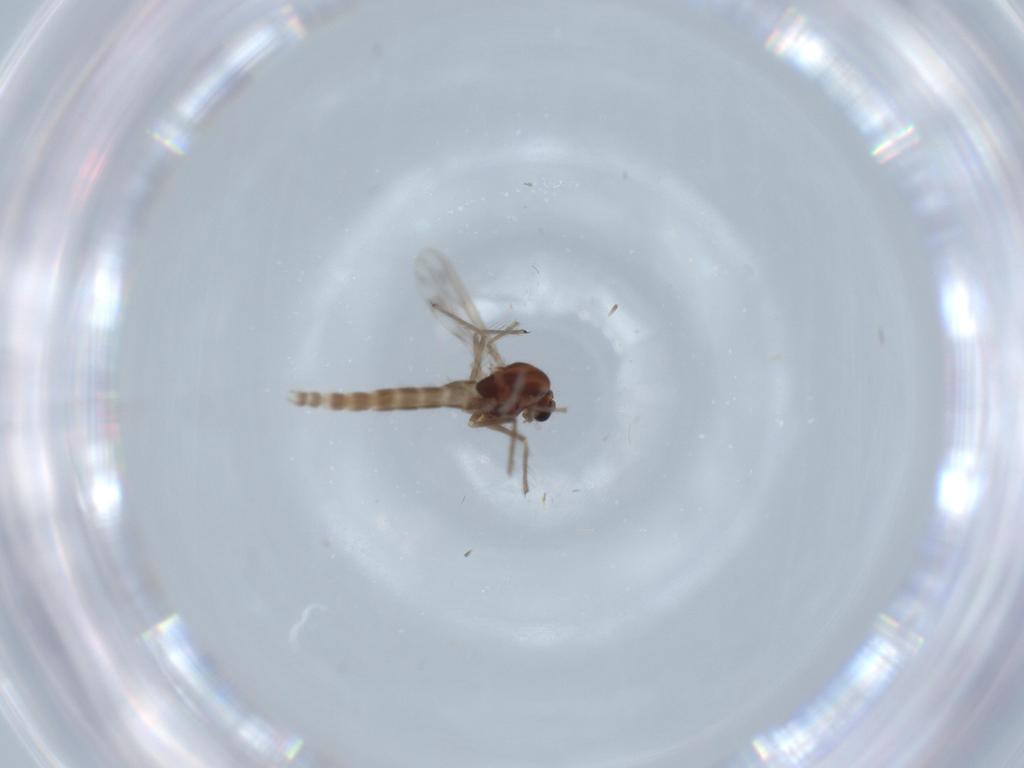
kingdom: Animalia
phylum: Arthropoda
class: Insecta
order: Diptera
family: Chironomidae
